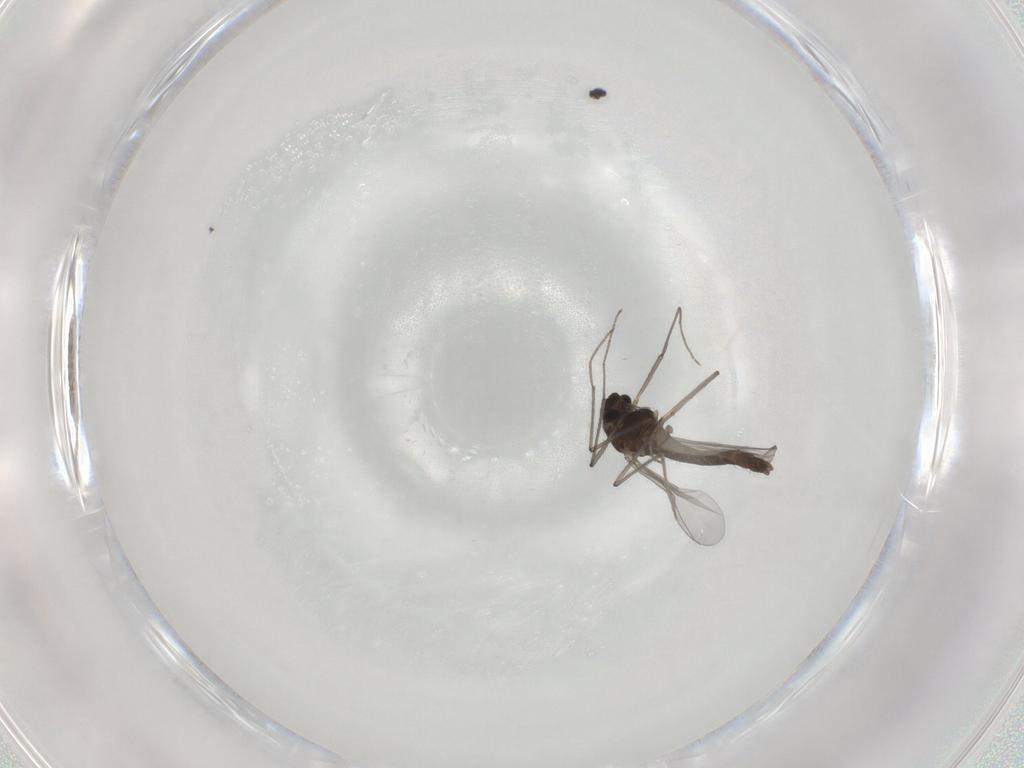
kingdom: Animalia
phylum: Arthropoda
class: Insecta
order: Diptera
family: Chironomidae
